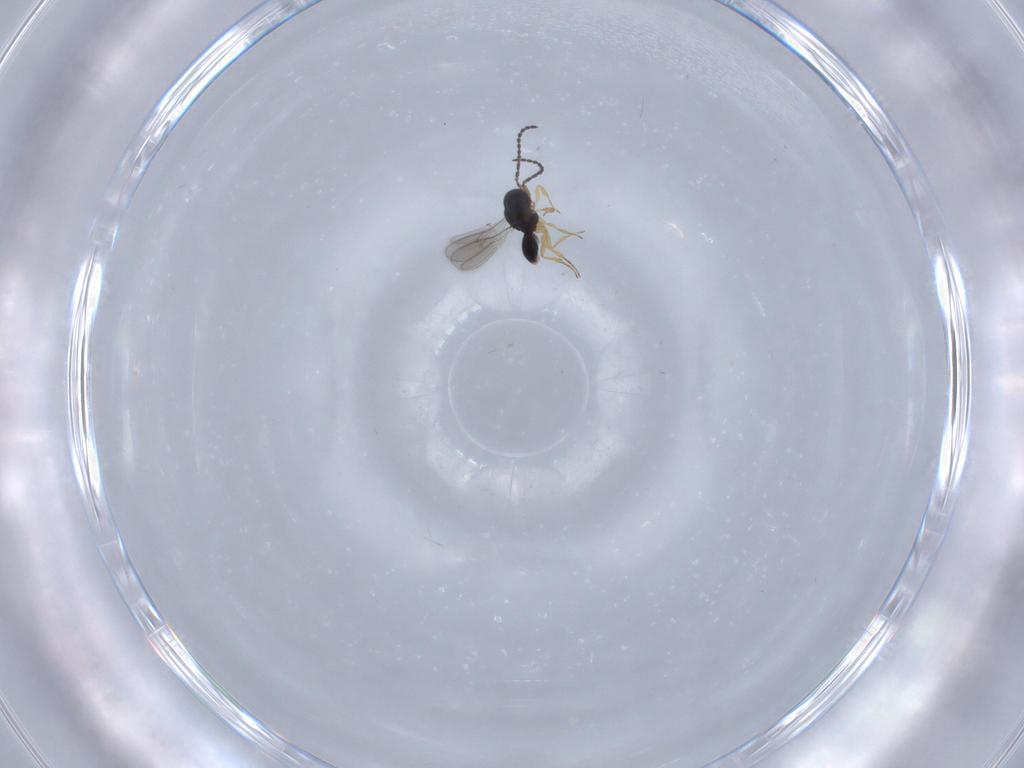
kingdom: Animalia
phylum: Arthropoda
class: Insecta
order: Hymenoptera
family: Scelionidae
